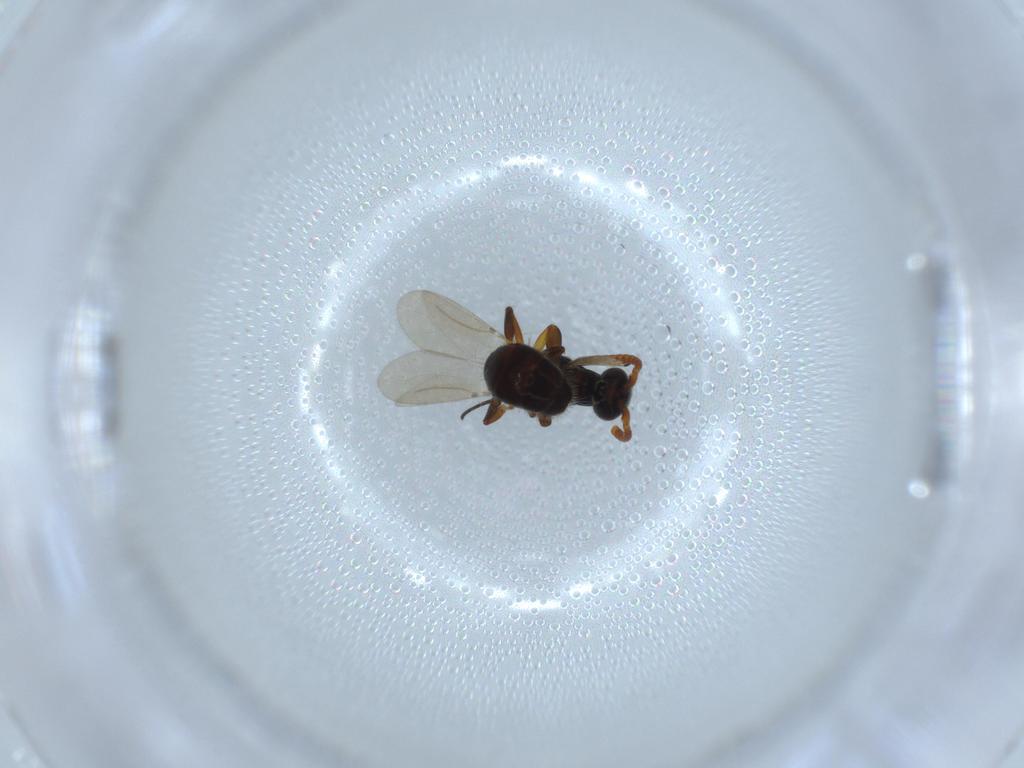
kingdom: Animalia
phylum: Arthropoda
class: Insecta
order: Hymenoptera
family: Bethylidae
